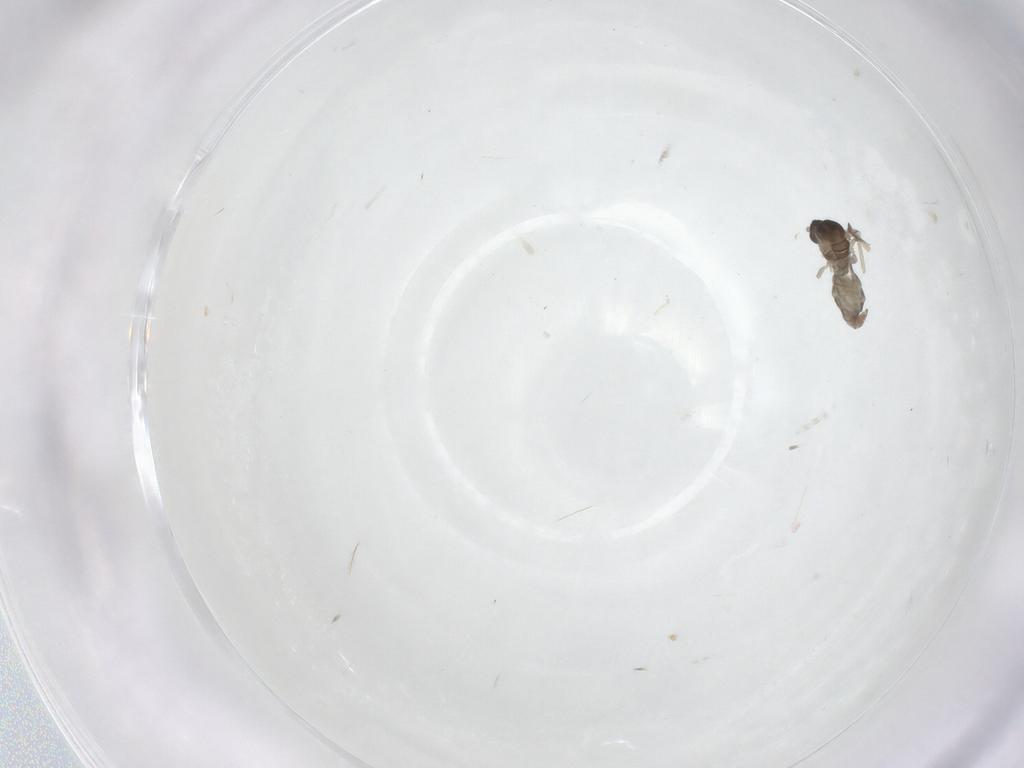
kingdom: Animalia
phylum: Arthropoda
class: Insecta
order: Diptera
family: Cecidomyiidae
